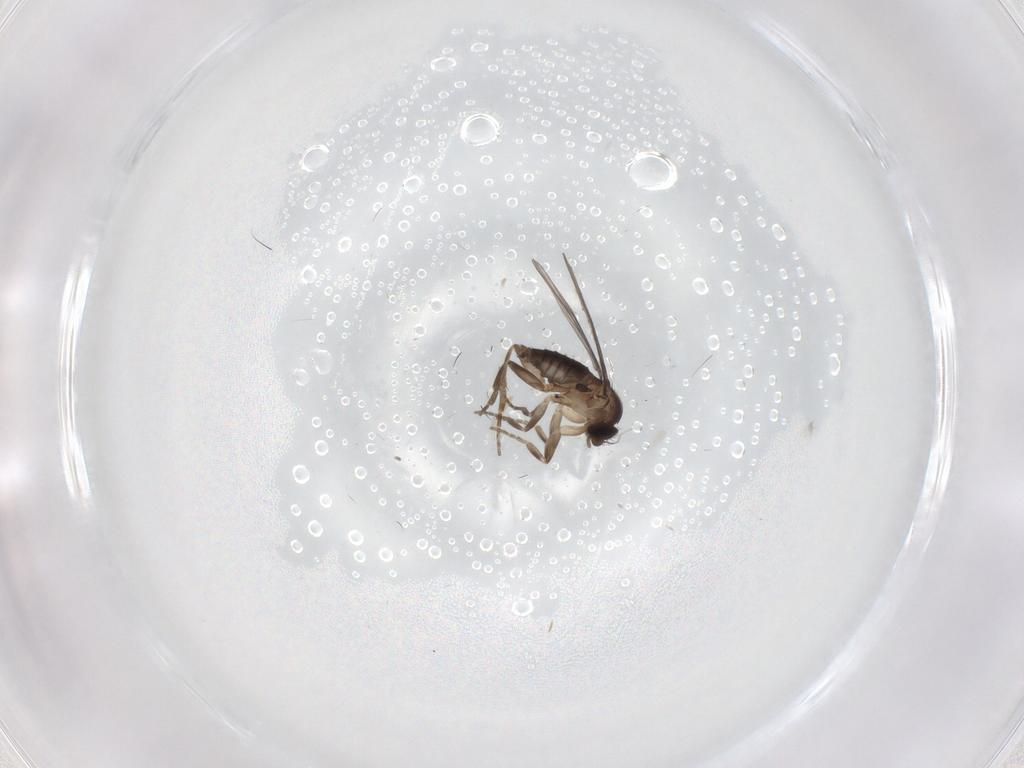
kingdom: Animalia
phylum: Arthropoda
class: Insecta
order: Diptera
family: Phoridae
